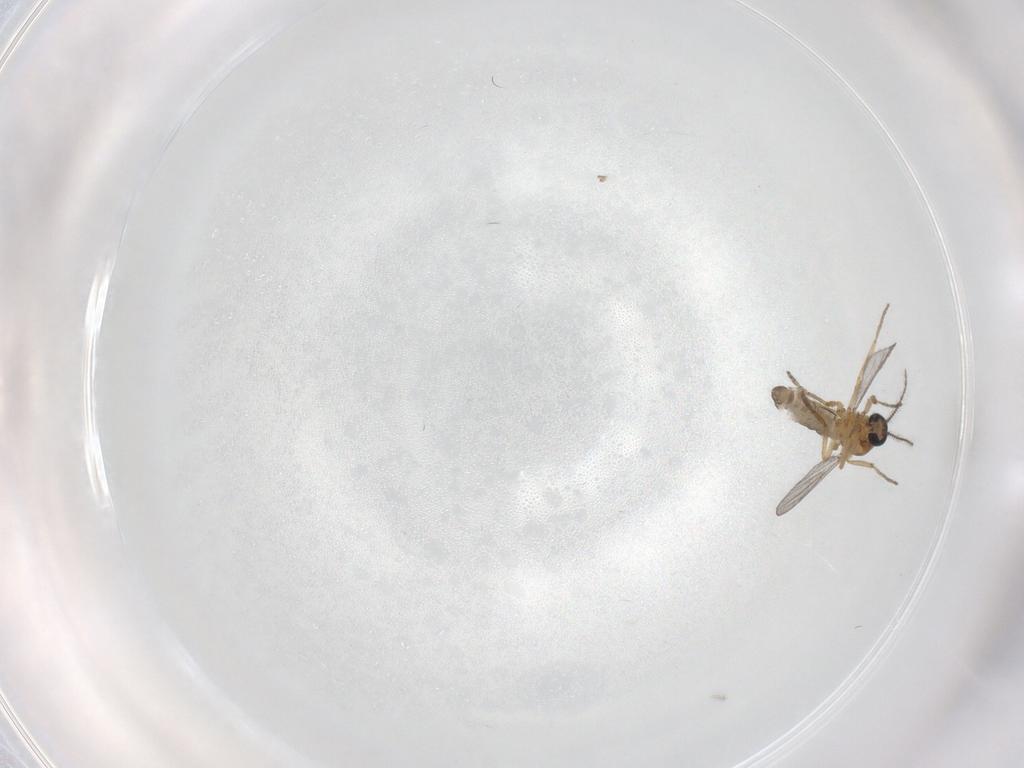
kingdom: Animalia
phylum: Arthropoda
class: Insecta
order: Diptera
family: Ceratopogonidae
